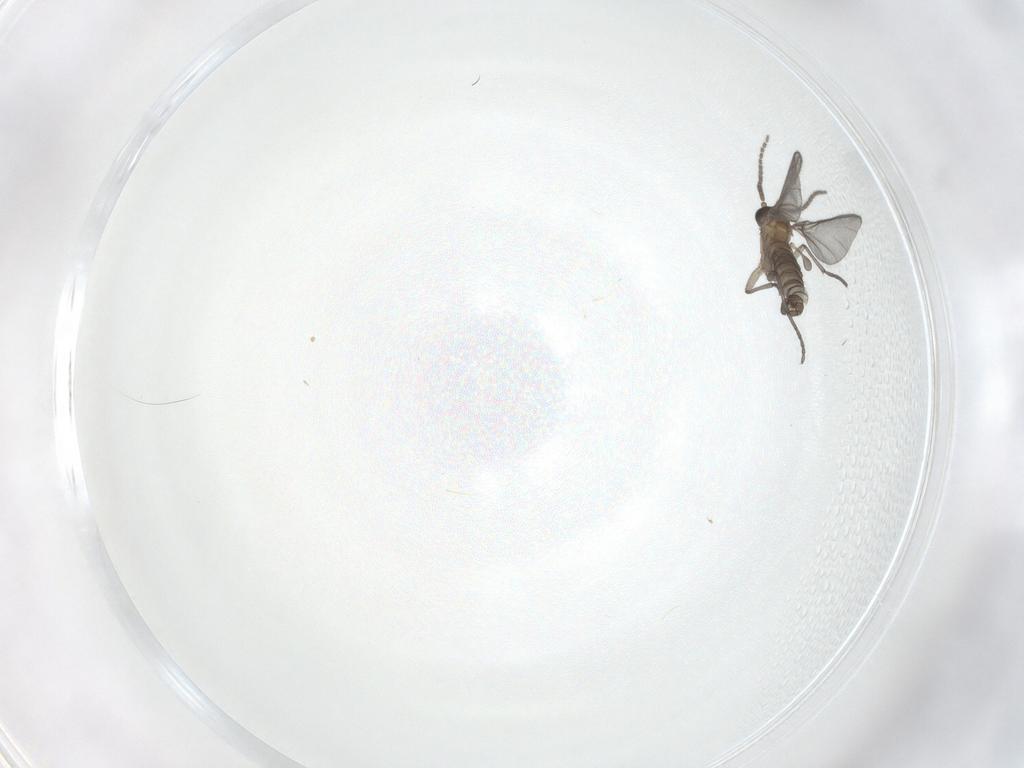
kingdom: Animalia
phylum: Arthropoda
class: Insecta
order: Diptera
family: Sciaridae
